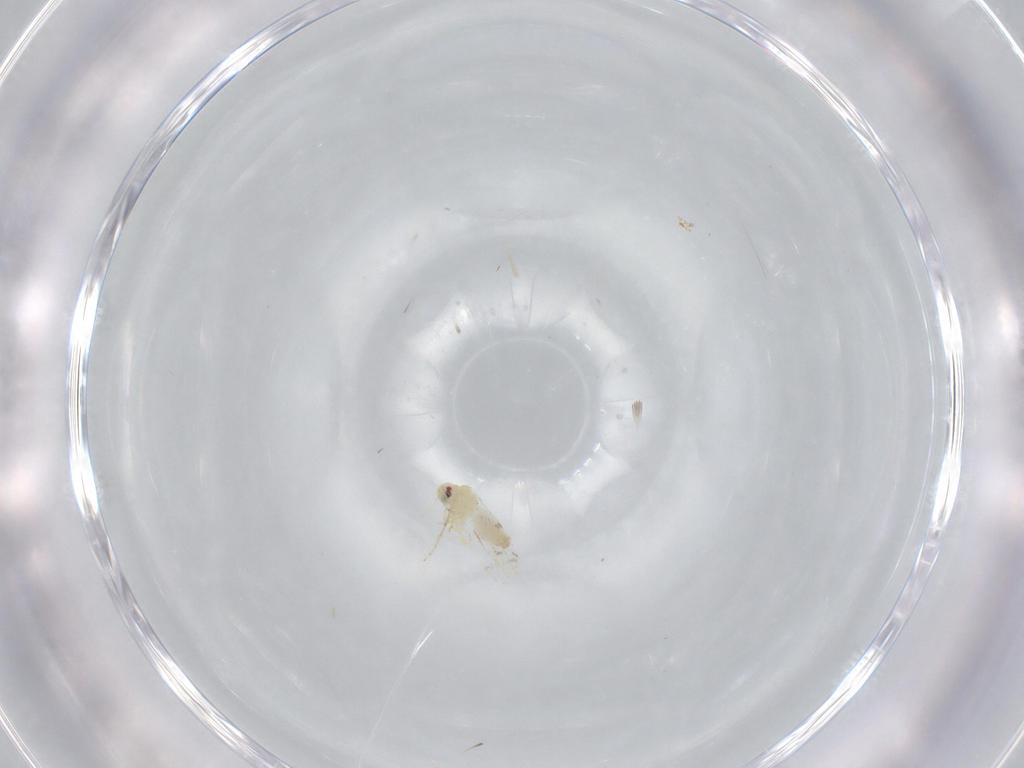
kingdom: Animalia
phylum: Arthropoda
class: Insecta
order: Hemiptera
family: Aleyrodidae
